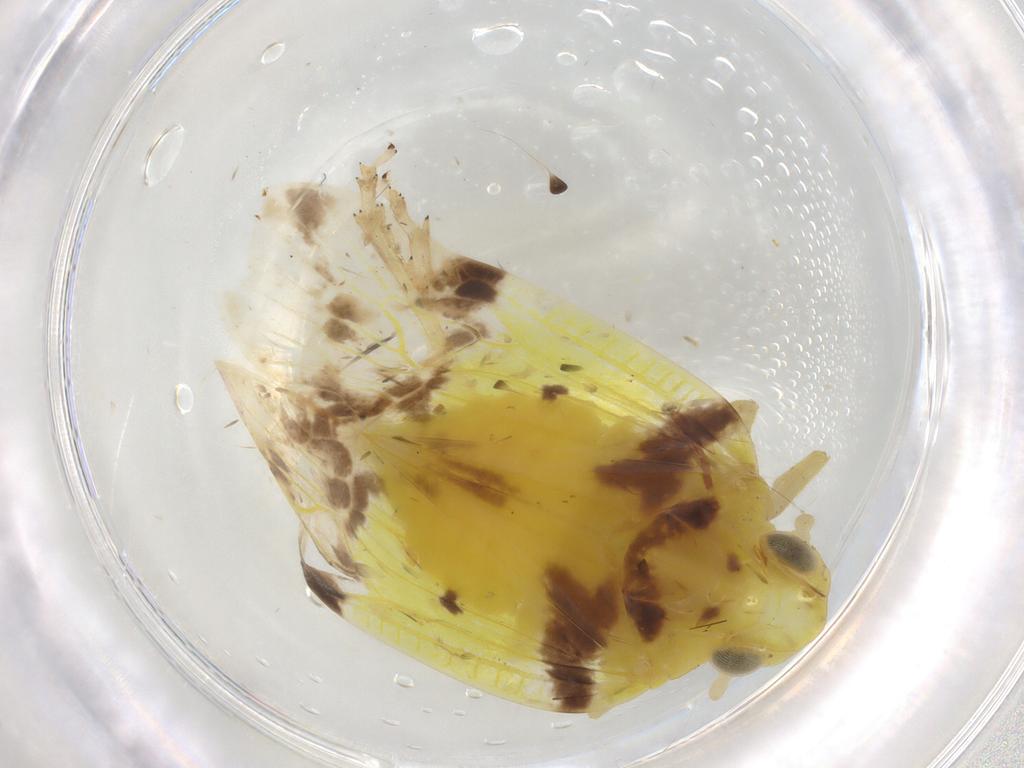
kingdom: Animalia
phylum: Arthropoda
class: Insecta
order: Hemiptera
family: Tropiduchidae
